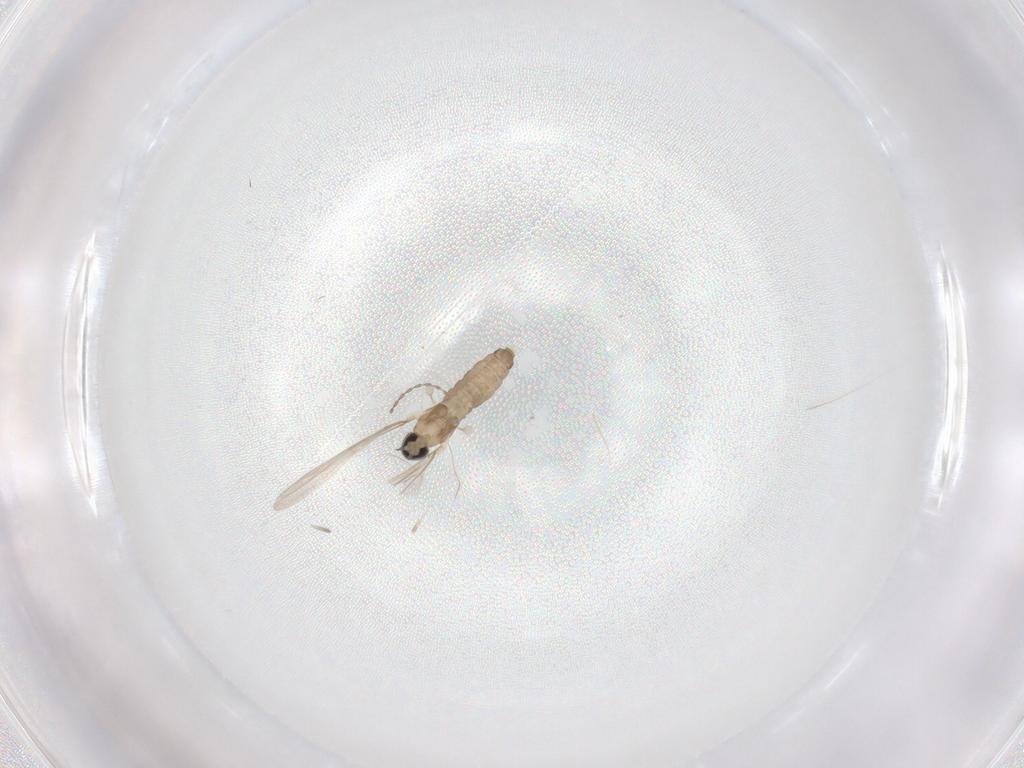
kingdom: Animalia
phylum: Arthropoda
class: Insecta
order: Diptera
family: Cecidomyiidae
